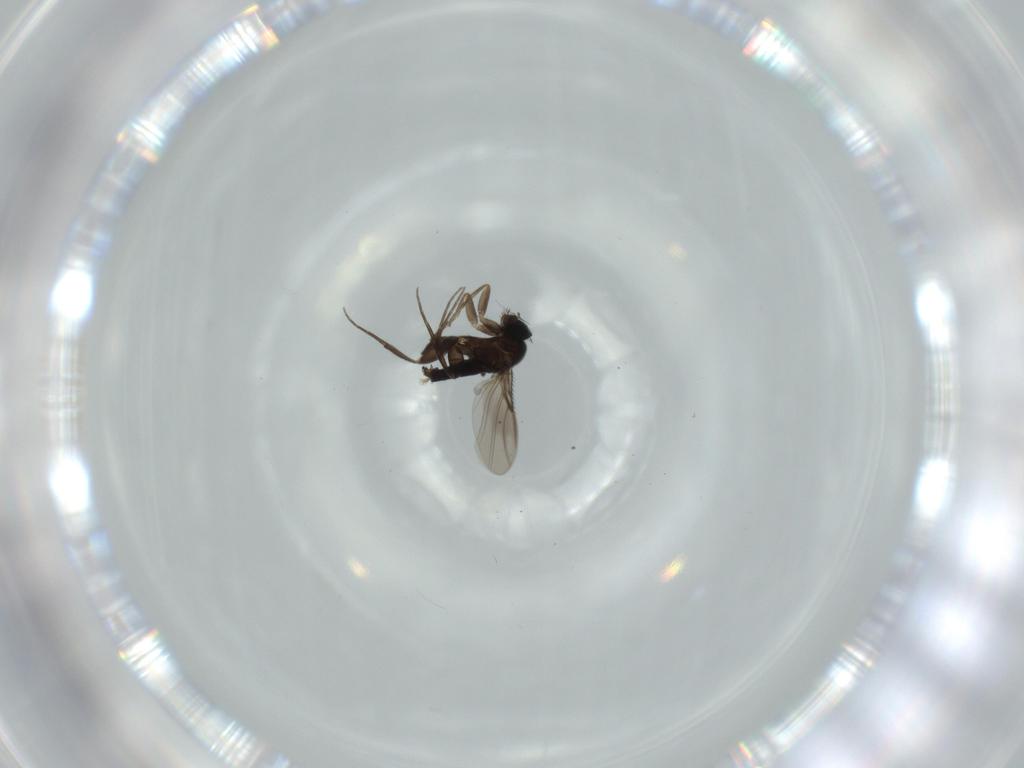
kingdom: Animalia
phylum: Arthropoda
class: Insecta
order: Diptera
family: Phoridae
